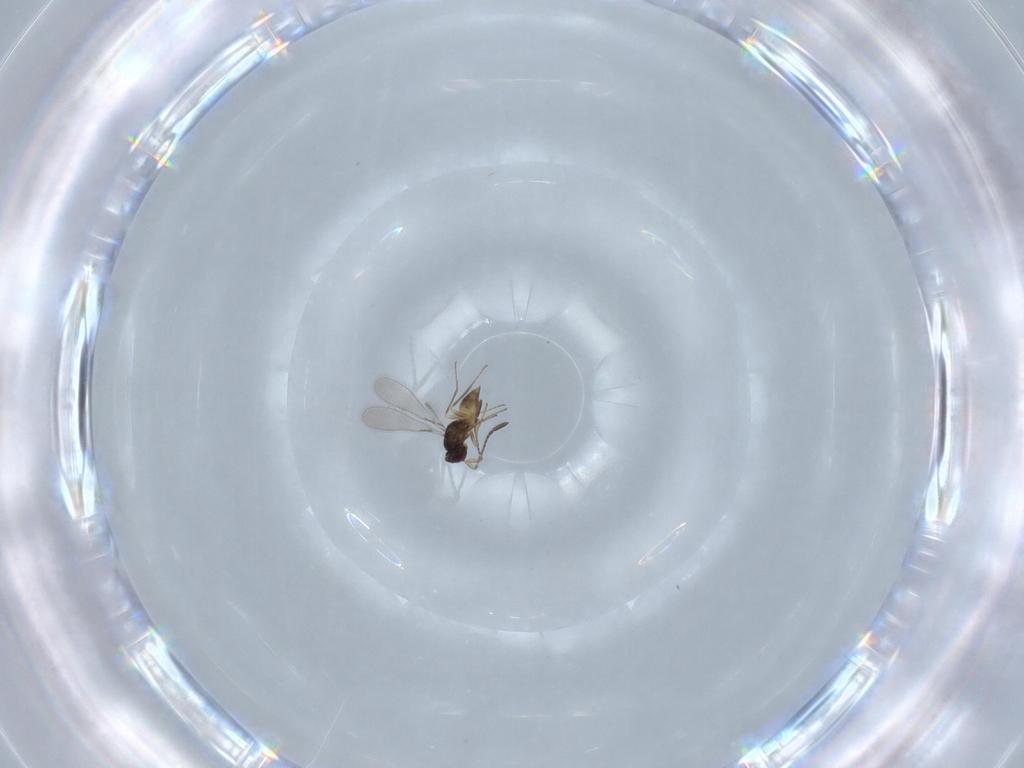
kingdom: Animalia
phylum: Arthropoda
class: Insecta
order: Hymenoptera
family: Mymaridae
